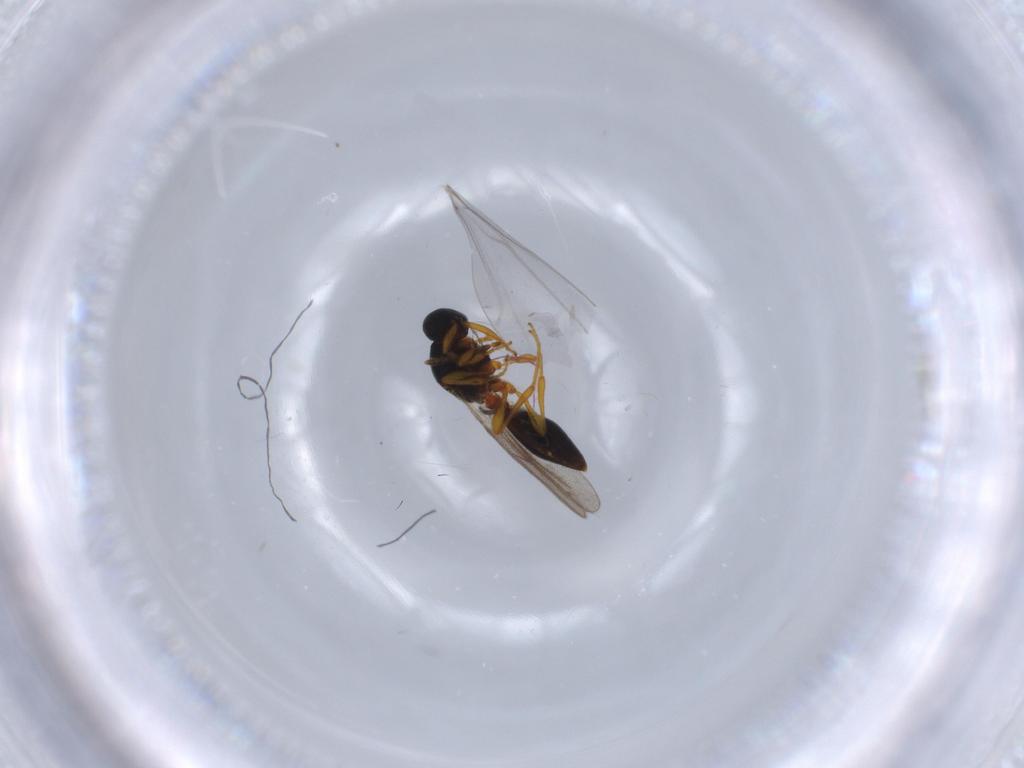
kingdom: Animalia
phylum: Arthropoda
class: Insecta
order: Hymenoptera
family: Platygastridae
